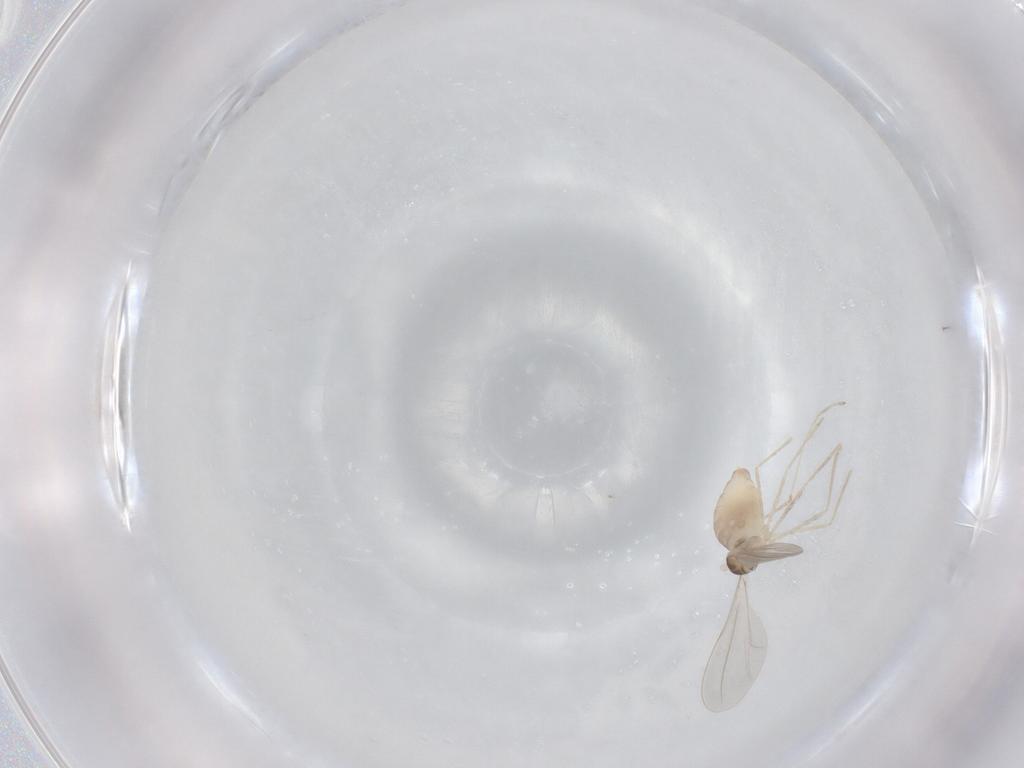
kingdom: Animalia
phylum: Arthropoda
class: Insecta
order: Diptera
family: Cecidomyiidae
